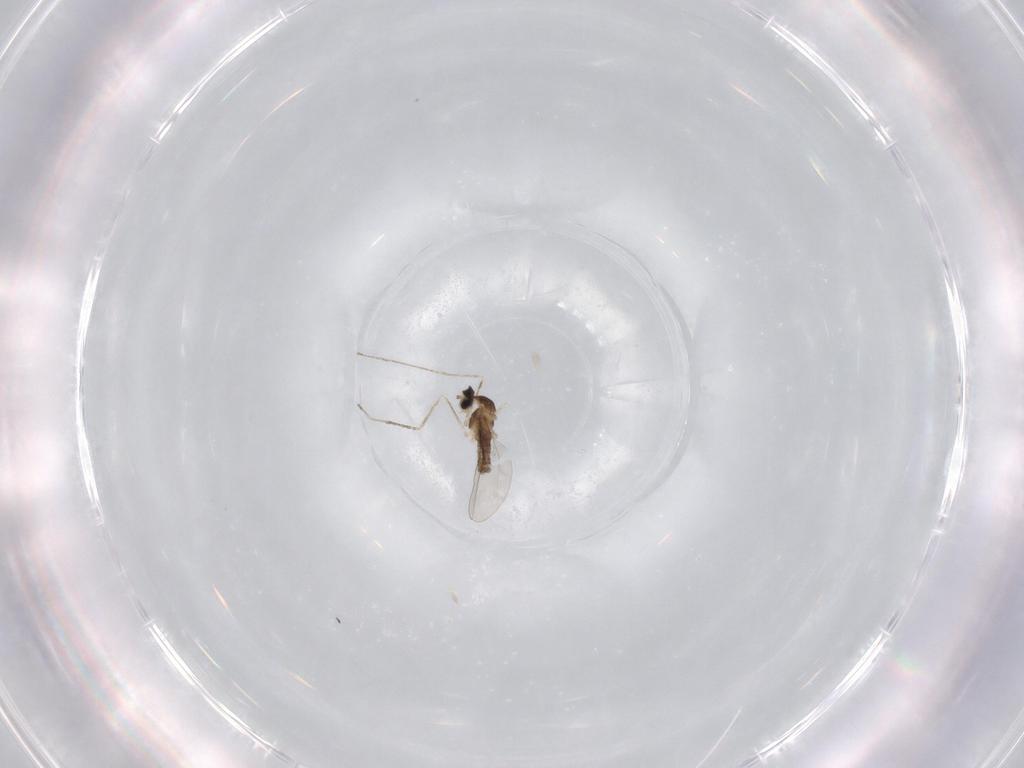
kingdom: Animalia
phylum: Arthropoda
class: Insecta
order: Diptera
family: Cecidomyiidae
